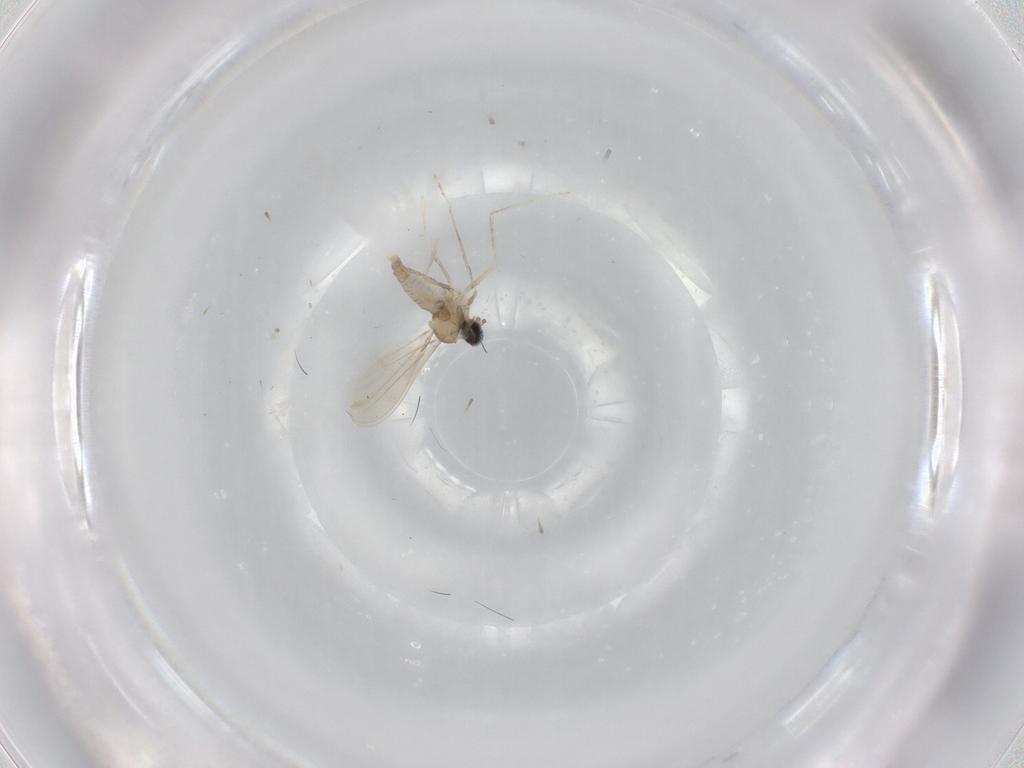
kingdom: Animalia
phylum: Arthropoda
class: Insecta
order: Diptera
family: Cecidomyiidae
